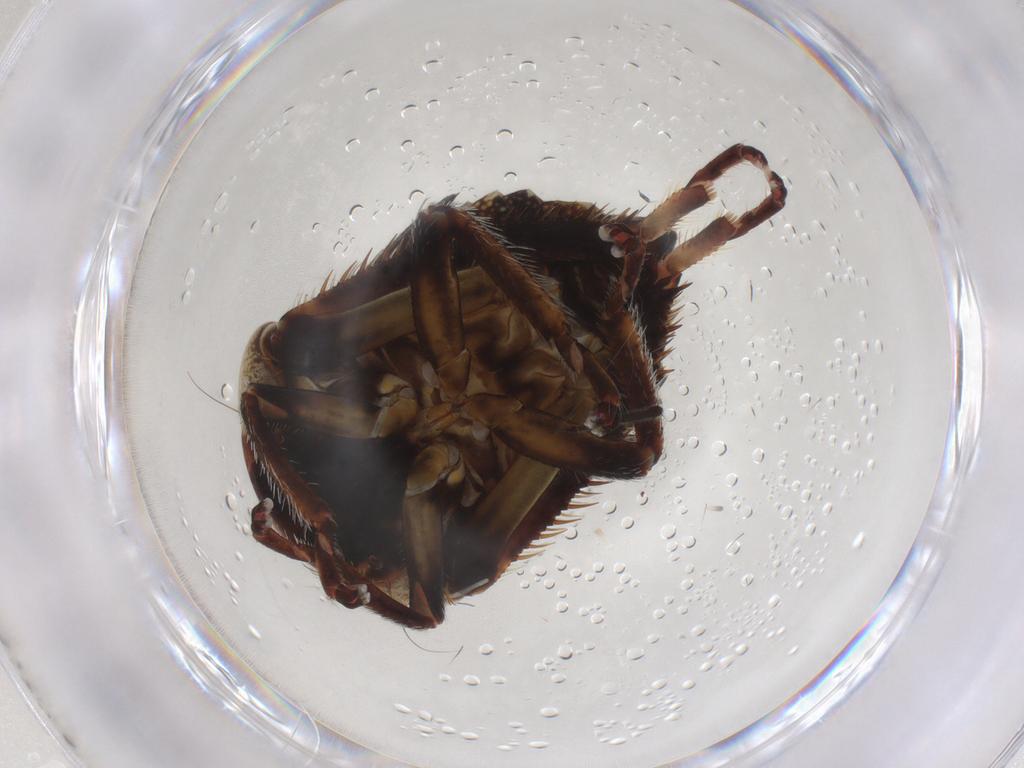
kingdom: Animalia
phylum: Arthropoda
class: Insecta
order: Hemiptera
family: Cicadellidae
